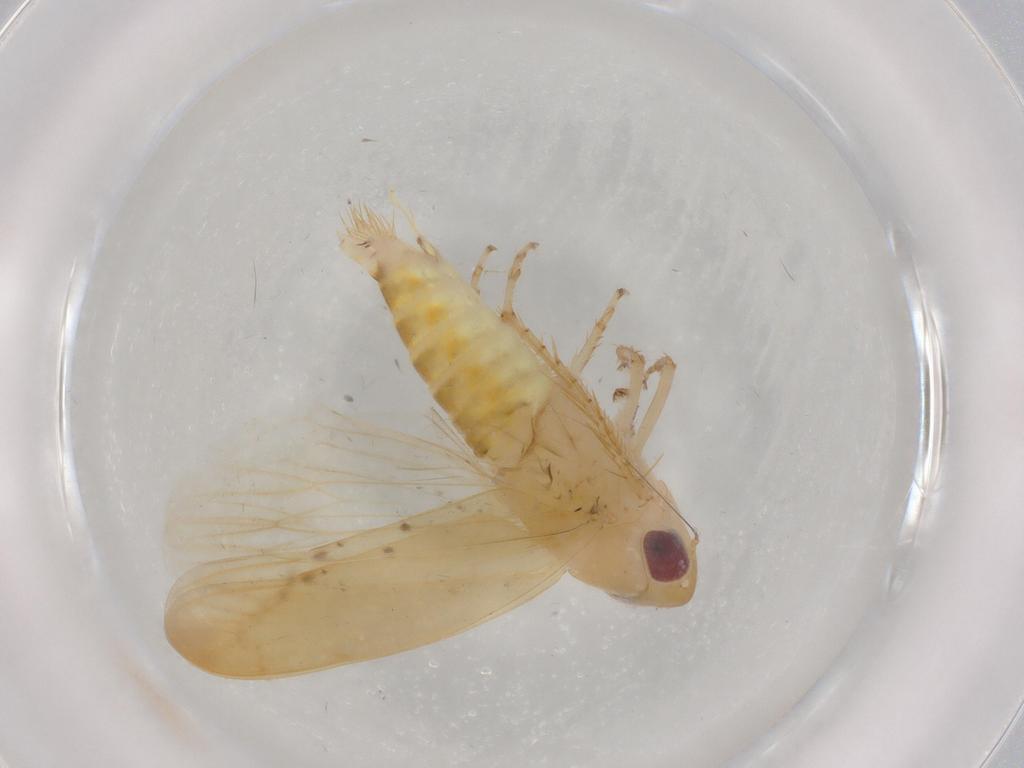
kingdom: Animalia
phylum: Arthropoda
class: Insecta
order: Hemiptera
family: Cicadellidae
